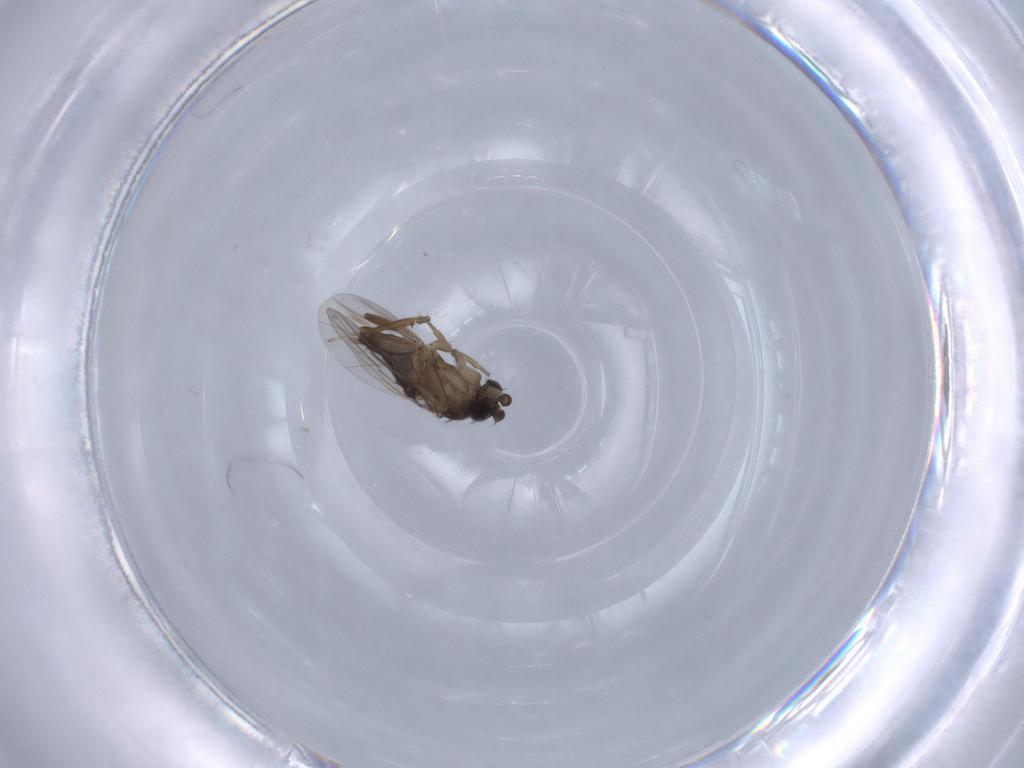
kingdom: Animalia
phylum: Arthropoda
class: Insecta
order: Diptera
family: Phoridae
